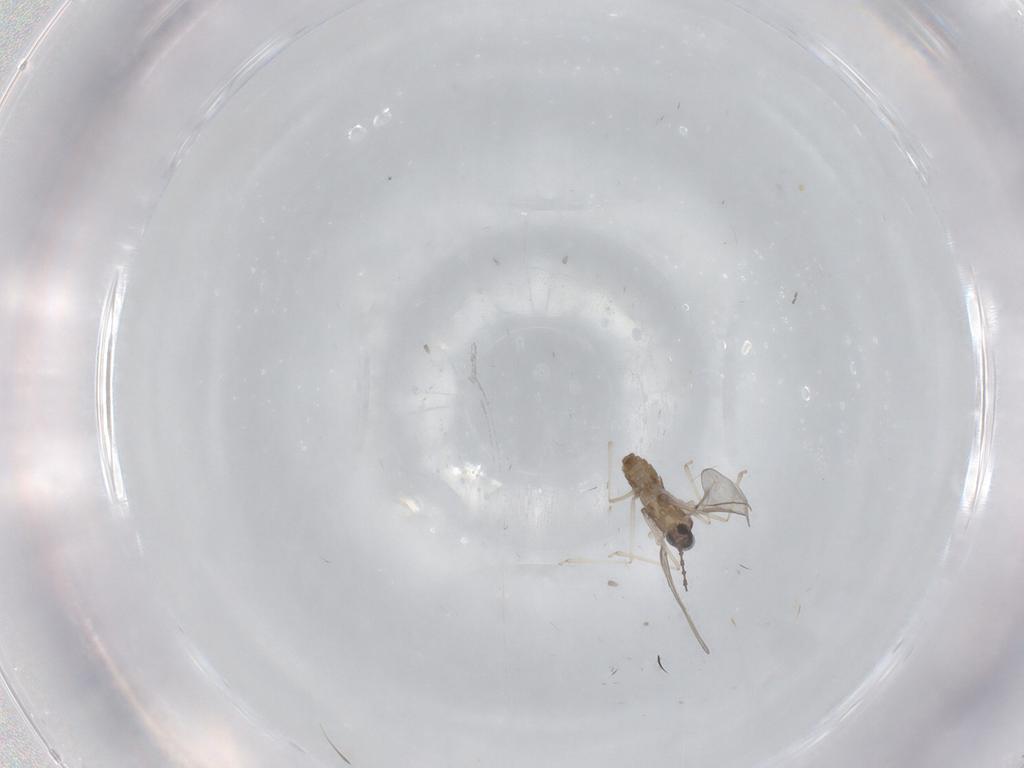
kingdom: Animalia
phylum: Arthropoda
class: Insecta
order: Diptera
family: Cecidomyiidae
